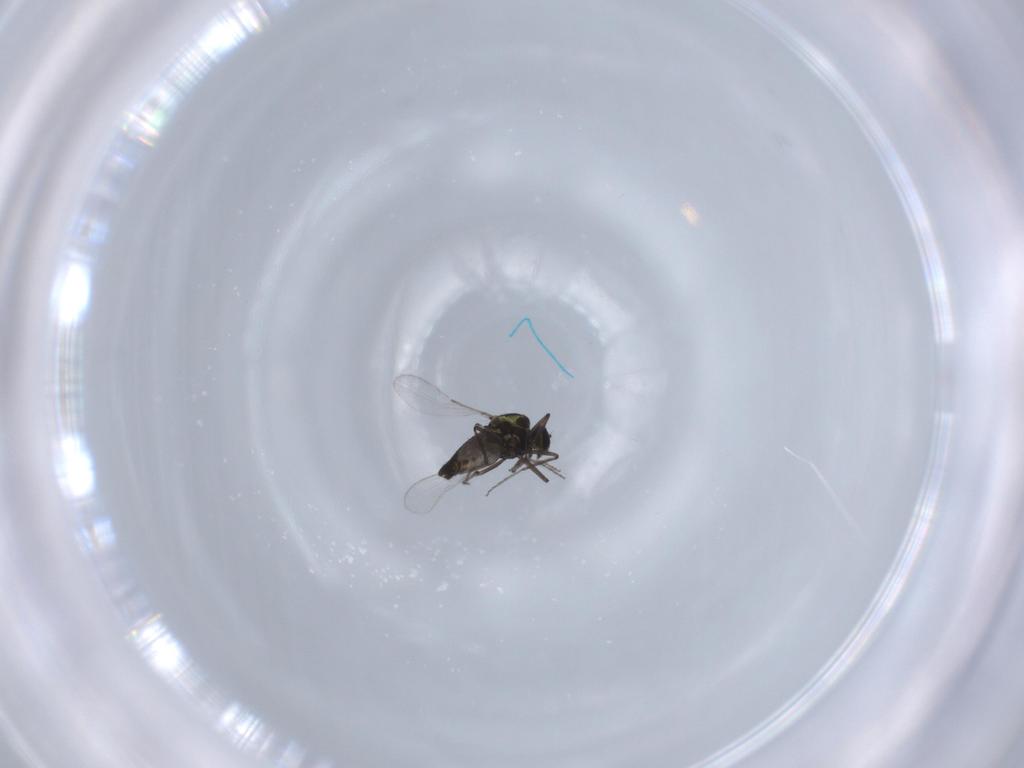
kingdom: Animalia
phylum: Arthropoda
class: Insecta
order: Diptera
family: Ceratopogonidae
